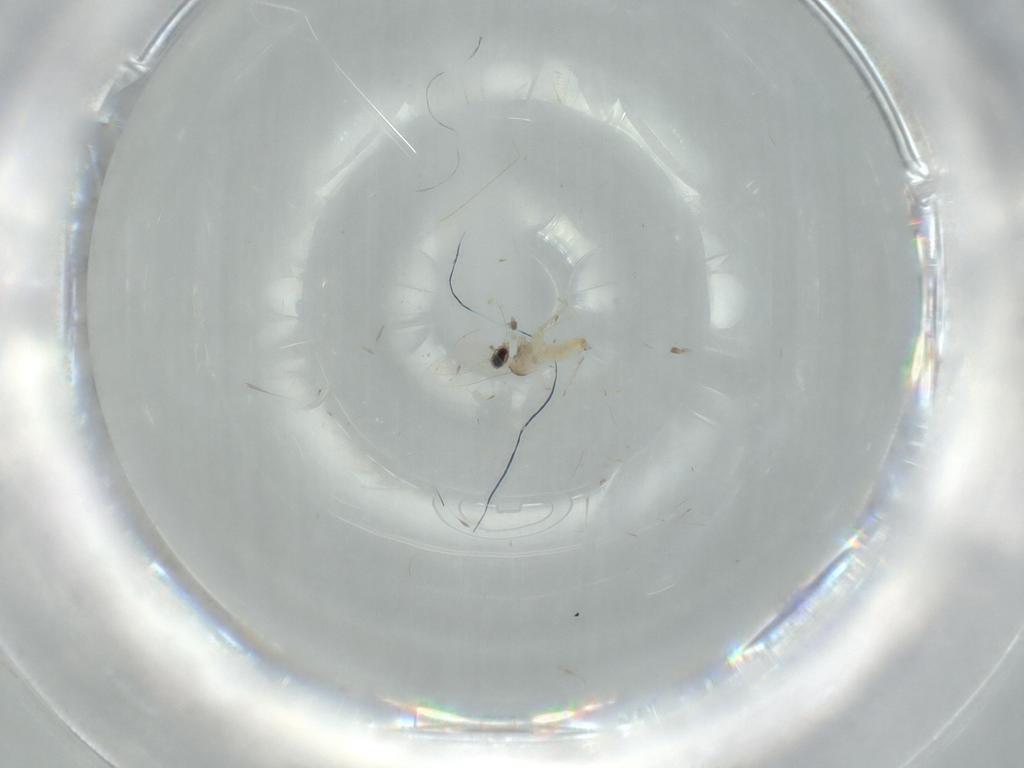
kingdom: Animalia
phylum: Arthropoda
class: Insecta
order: Diptera
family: Cecidomyiidae
